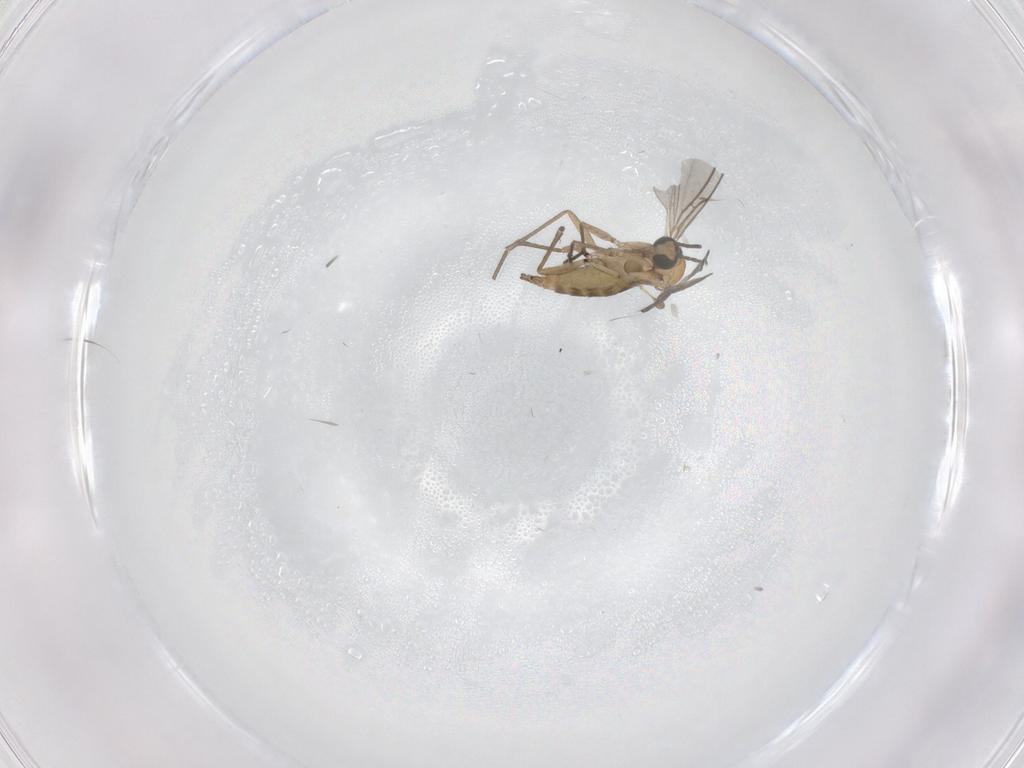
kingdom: Animalia
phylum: Arthropoda
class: Insecta
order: Diptera
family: Sciaridae
